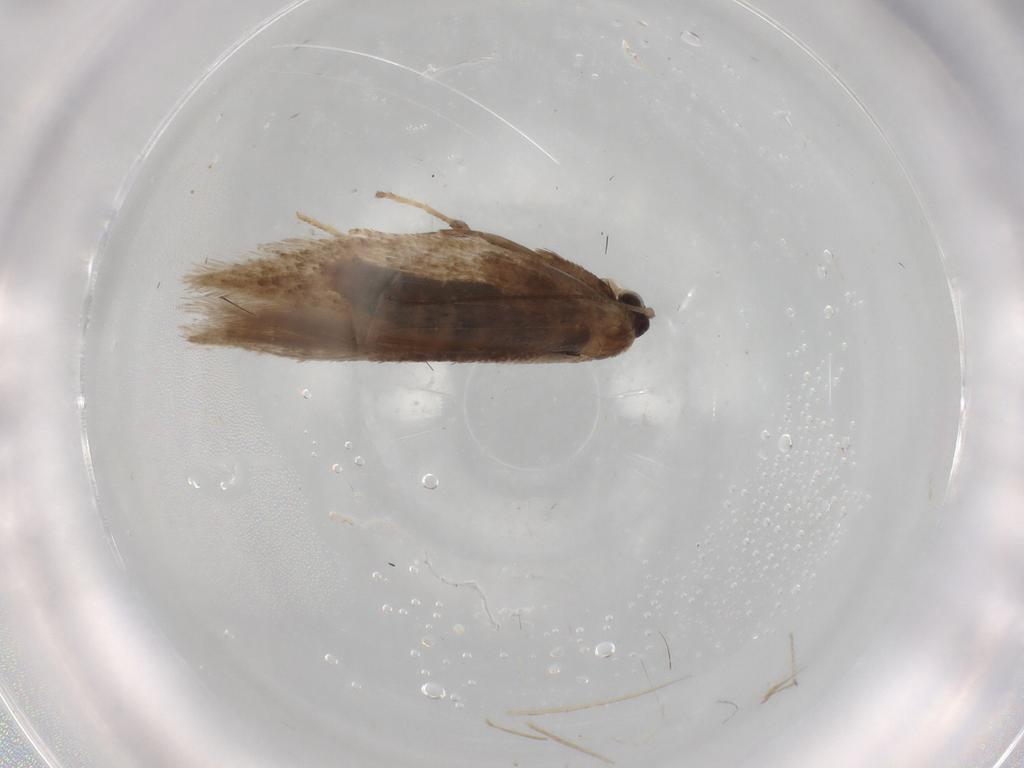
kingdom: Animalia
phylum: Arthropoda
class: Insecta
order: Lepidoptera
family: Nepticulidae
